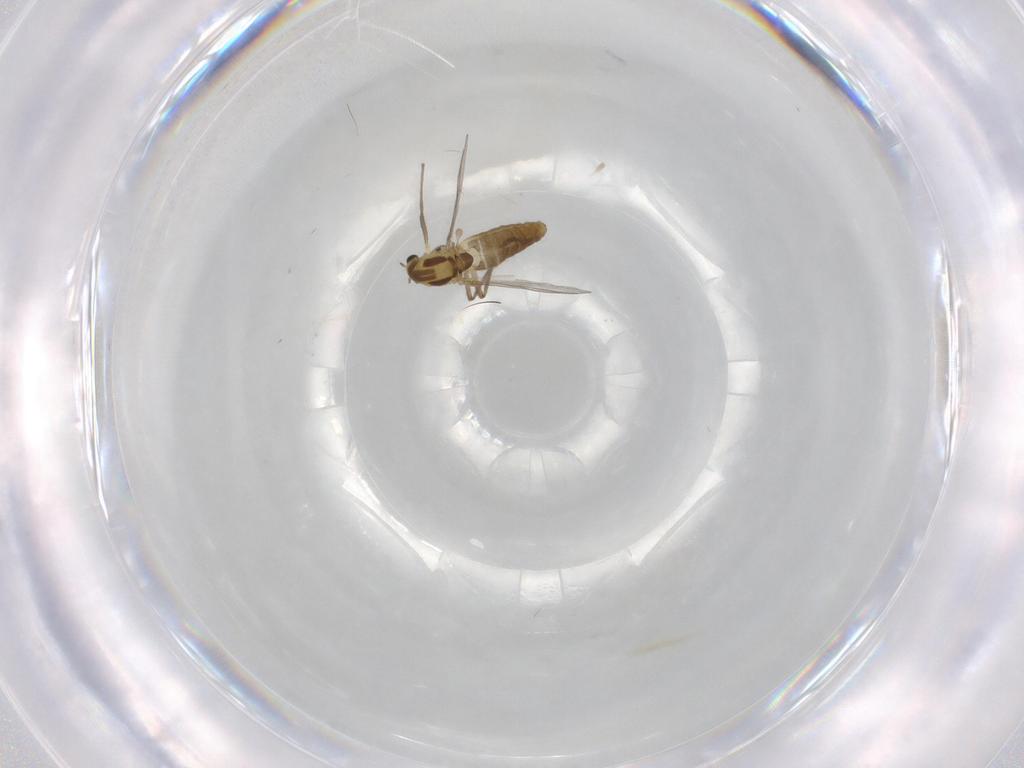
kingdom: Animalia
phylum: Arthropoda
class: Insecta
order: Diptera
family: Chironomidae
